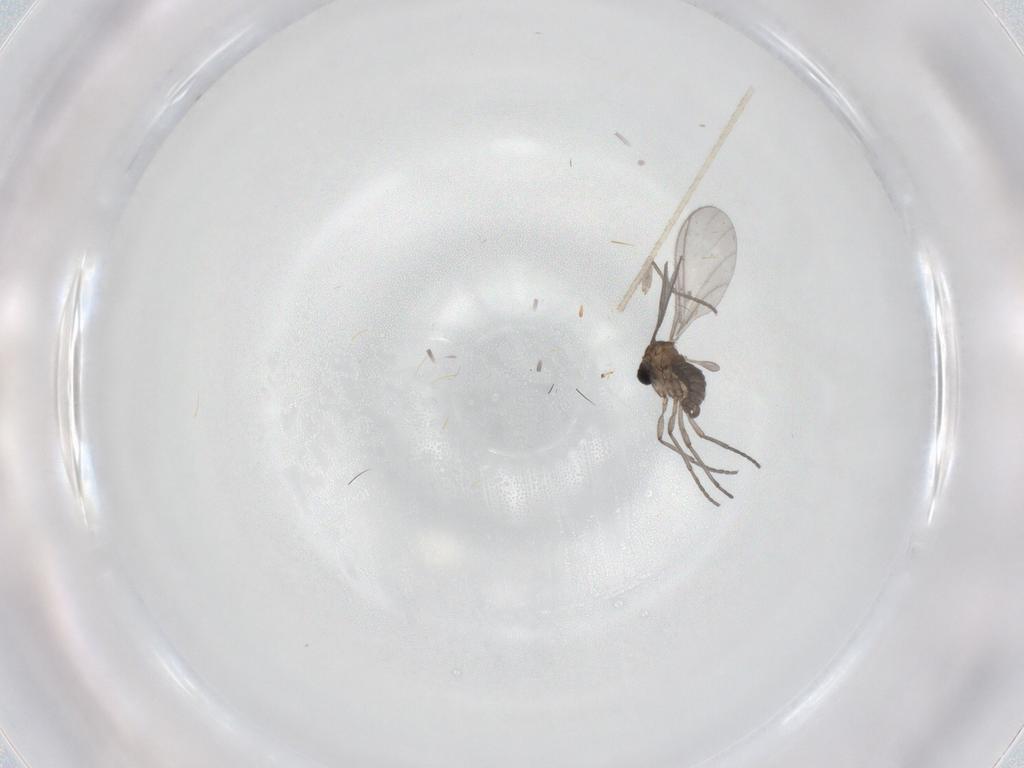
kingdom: Animalia
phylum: Arthropoda
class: Insecta
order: Diptera
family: Sciaridae
